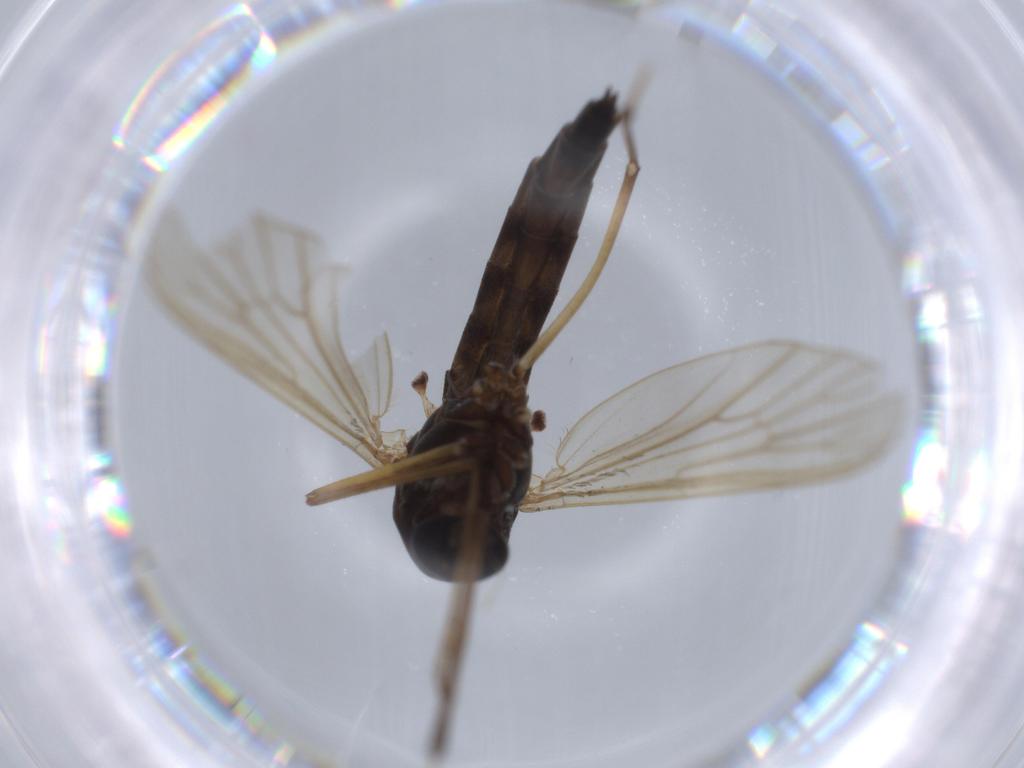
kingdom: Animalia
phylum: Arthropoda
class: Insecta
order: Diptera
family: Ceratopogonidae
